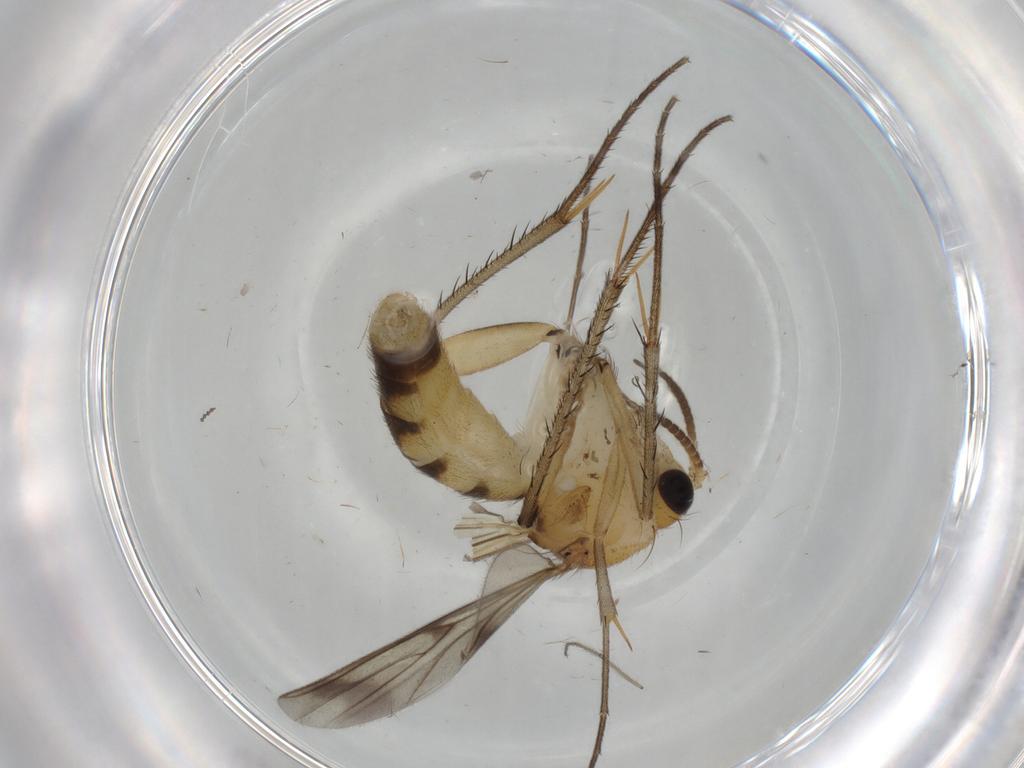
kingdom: Animalia
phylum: Arthropoda
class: Insecta
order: Diptera
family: Mycetophilidae
